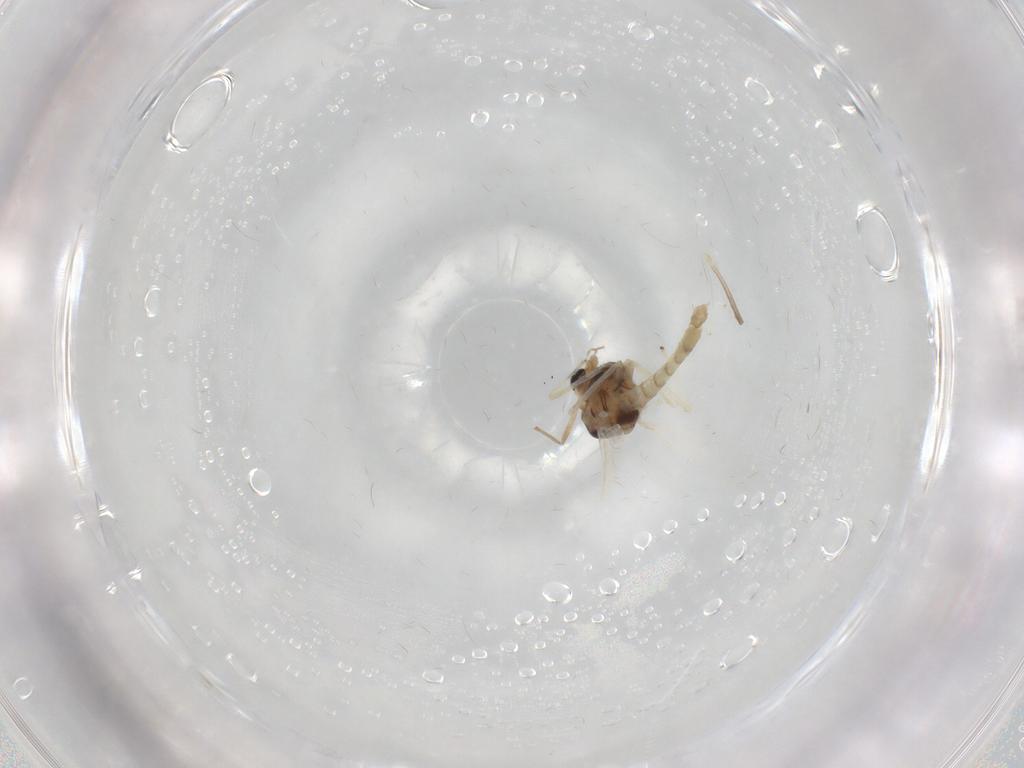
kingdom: Animalia
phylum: Arthropoda
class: Insecta
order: Diptera
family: Chironomidae
